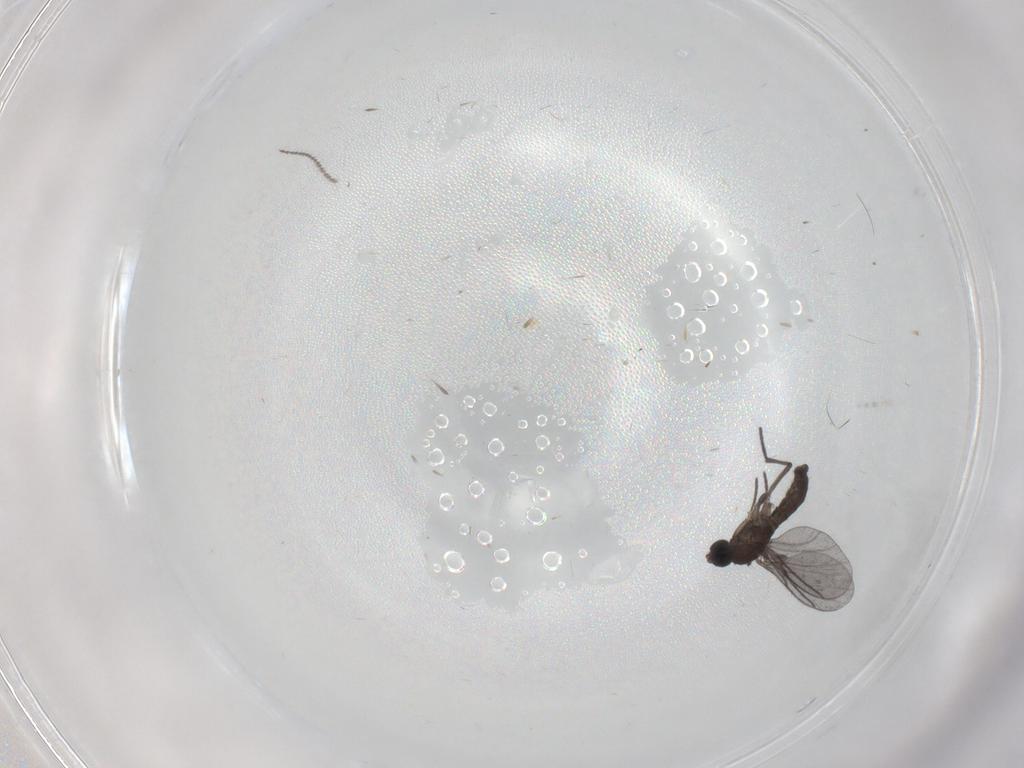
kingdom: Animalia
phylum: Arthropoda
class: Insecta
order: Diptera
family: Cecidomyiidae
